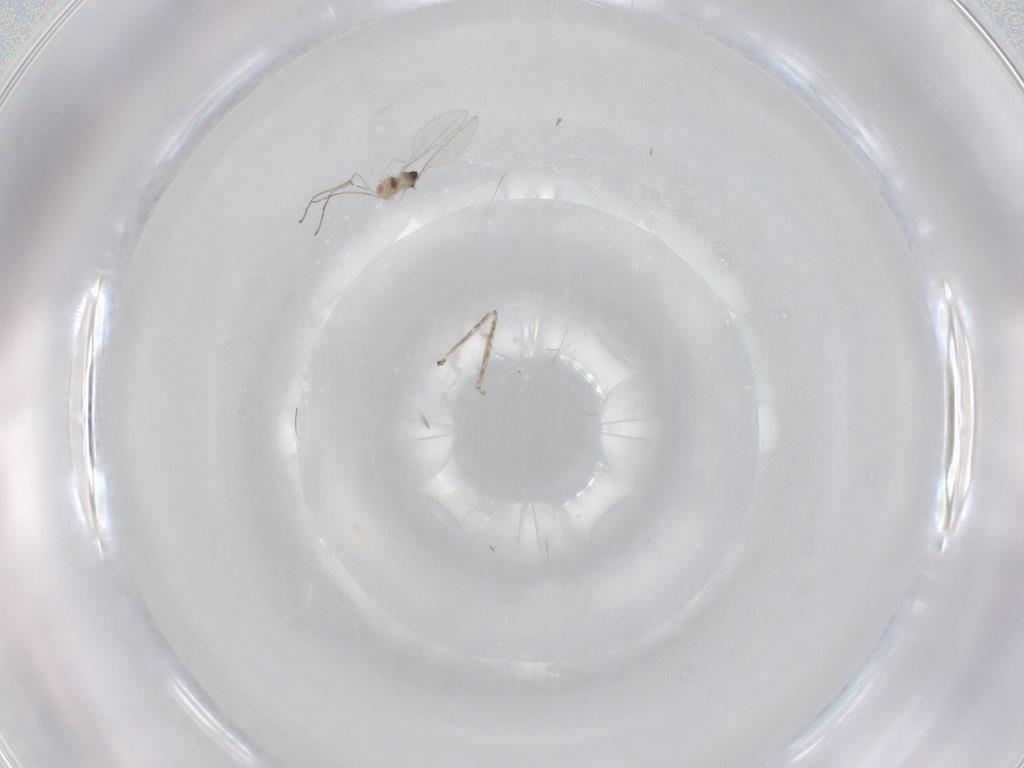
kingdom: Animalia
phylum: Arthropoda
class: Insecta
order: Diptera
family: Cecidomyiidae
